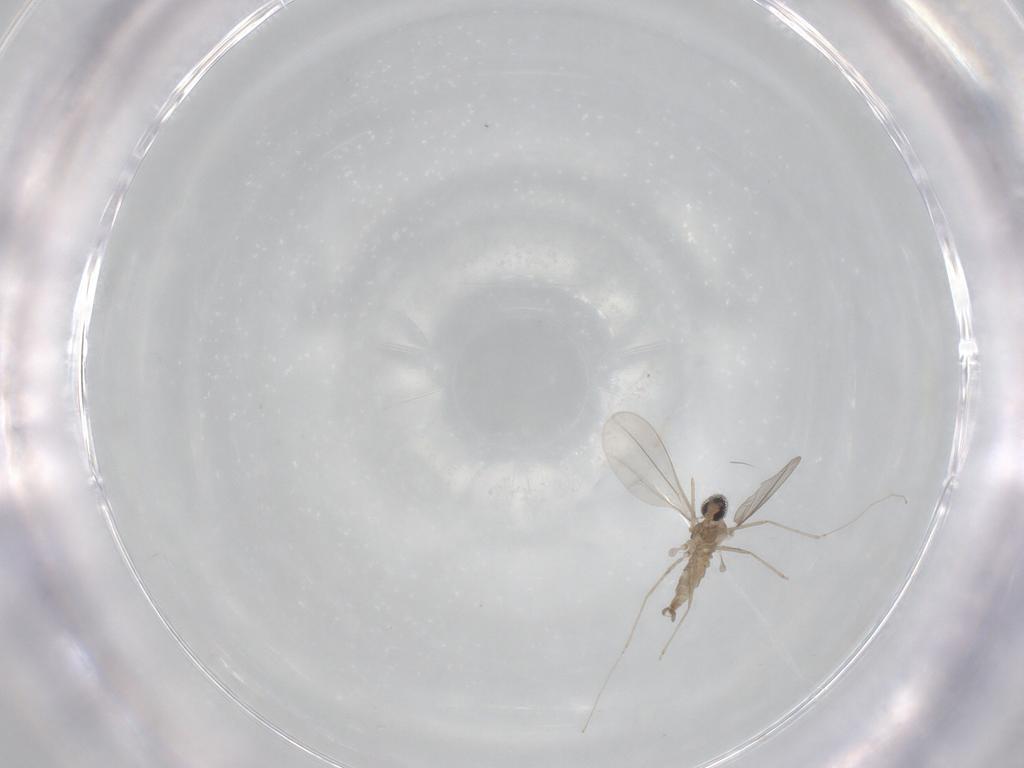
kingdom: Animalia
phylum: Arthropoda
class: Insecta
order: Diptera
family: Cecidomyiidae
